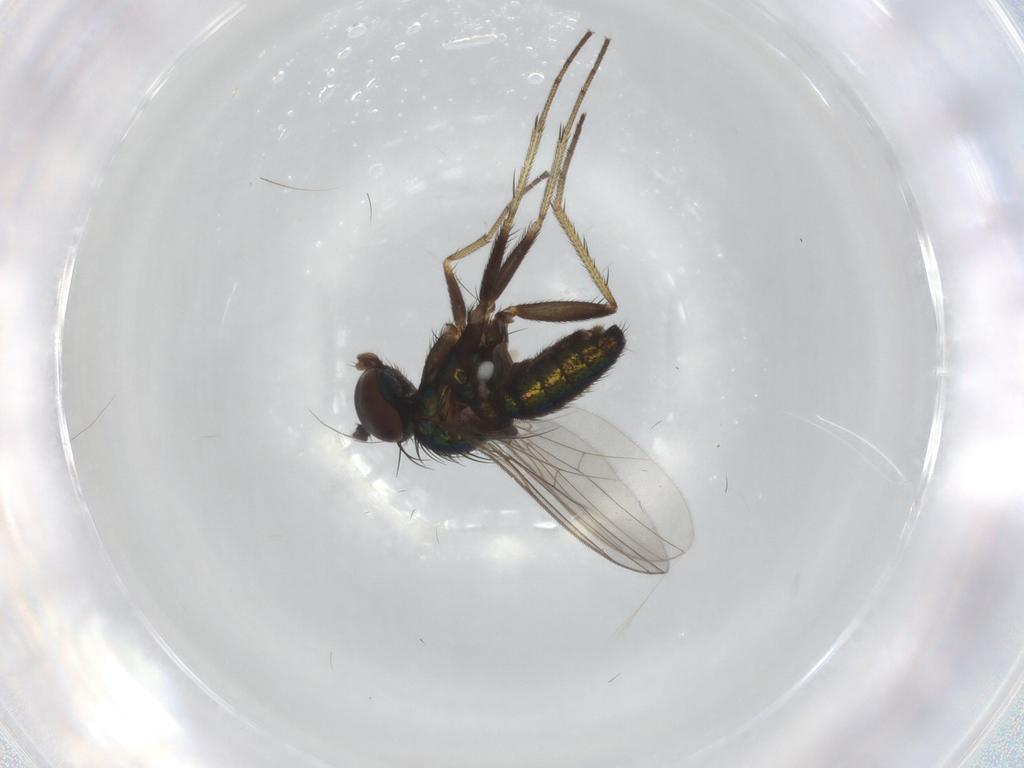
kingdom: Animalia
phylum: Arthropoda
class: Insecta
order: Diptera
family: Dolichopodidae
